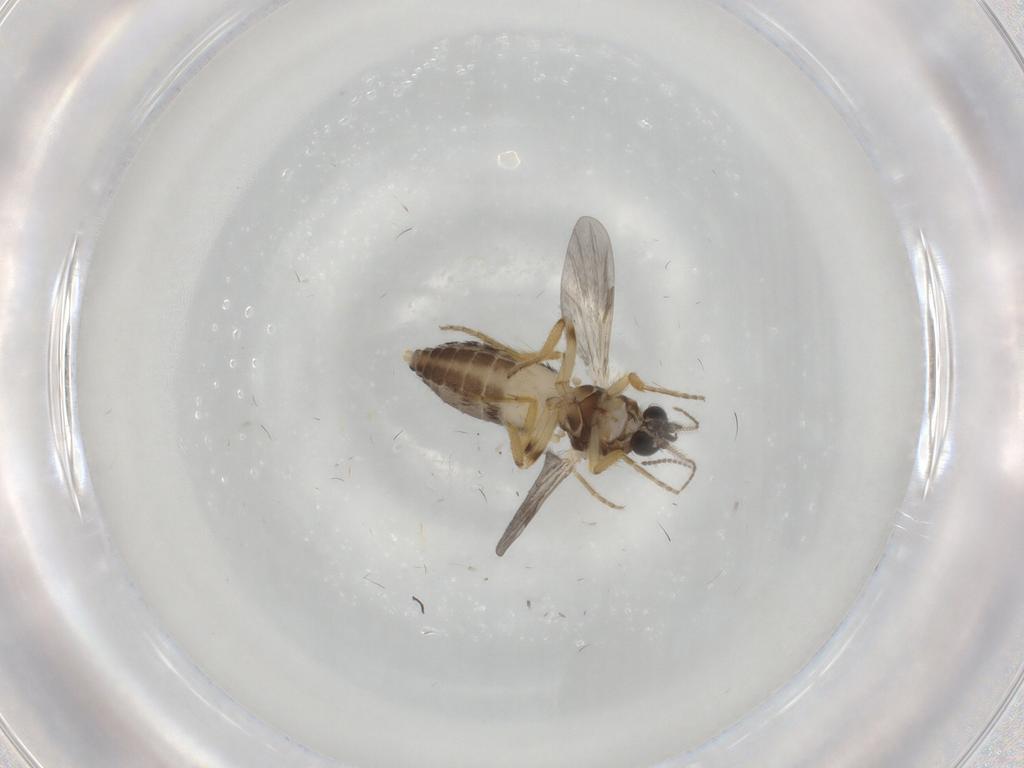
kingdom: Animalia
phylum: Arthropoda
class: Insecta
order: Diptera
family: Ceratopogonidae
